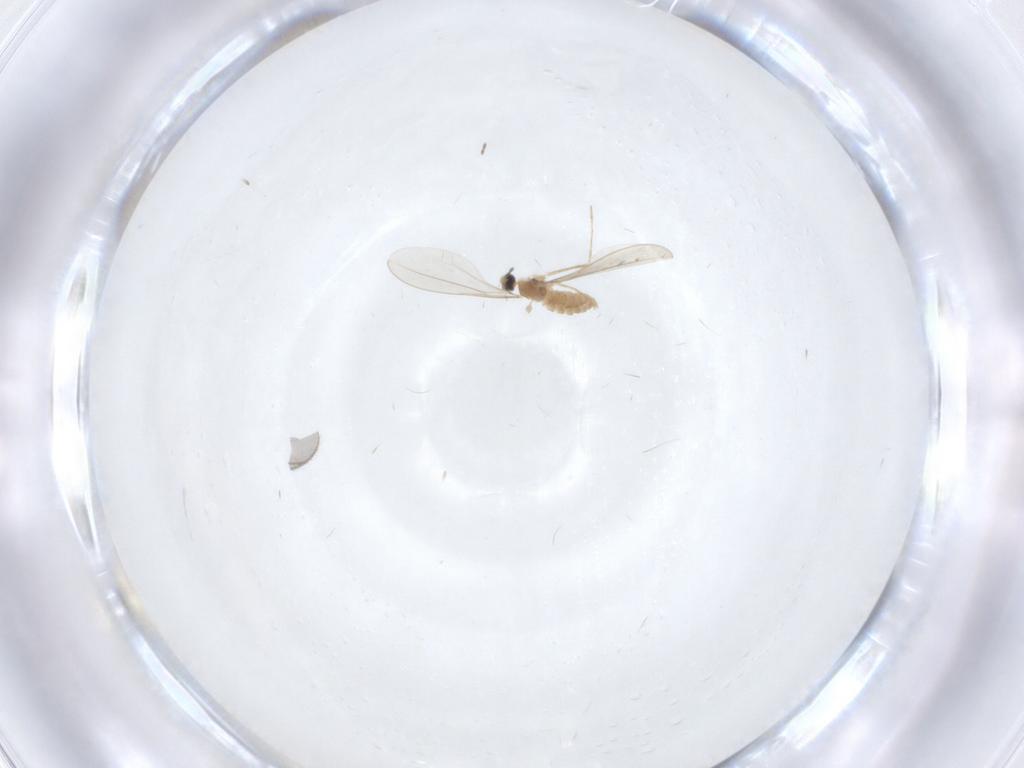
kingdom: Animalia
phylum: Arthropoda
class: Insecta
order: Diptera
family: Cecidomyiidae
